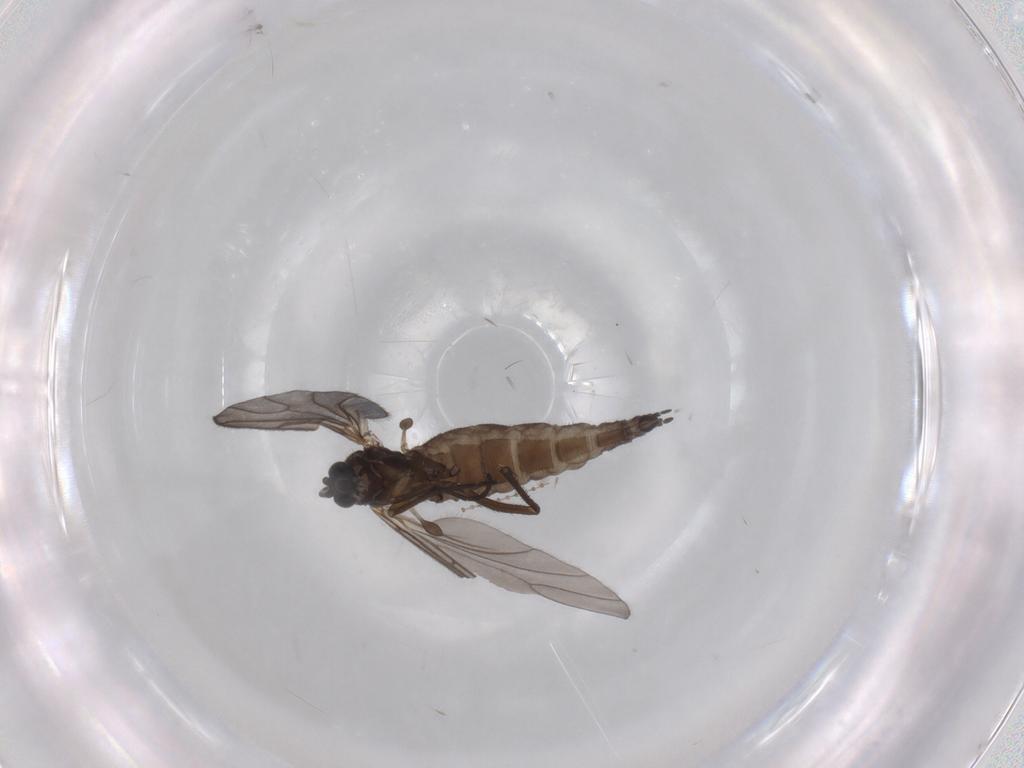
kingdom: Animalia
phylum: Arthropoda
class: Insecta
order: Diptera
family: Sciaridae
